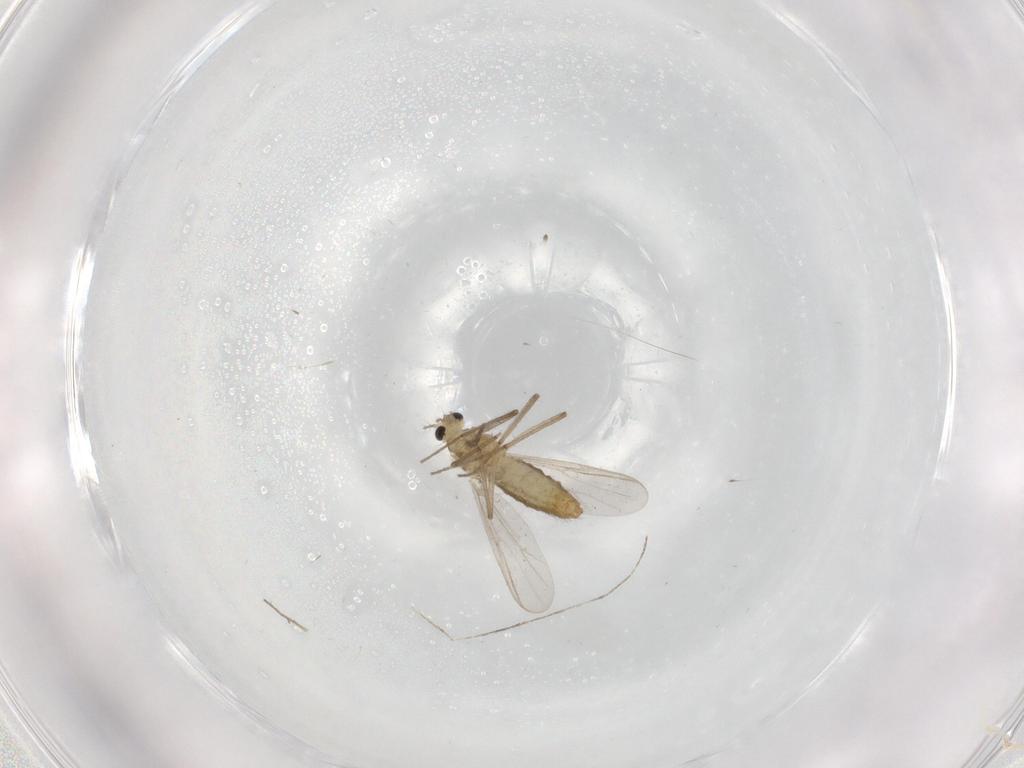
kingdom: Animalia
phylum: Arthropoda
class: Insecta
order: Diptera
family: Chironomidae
